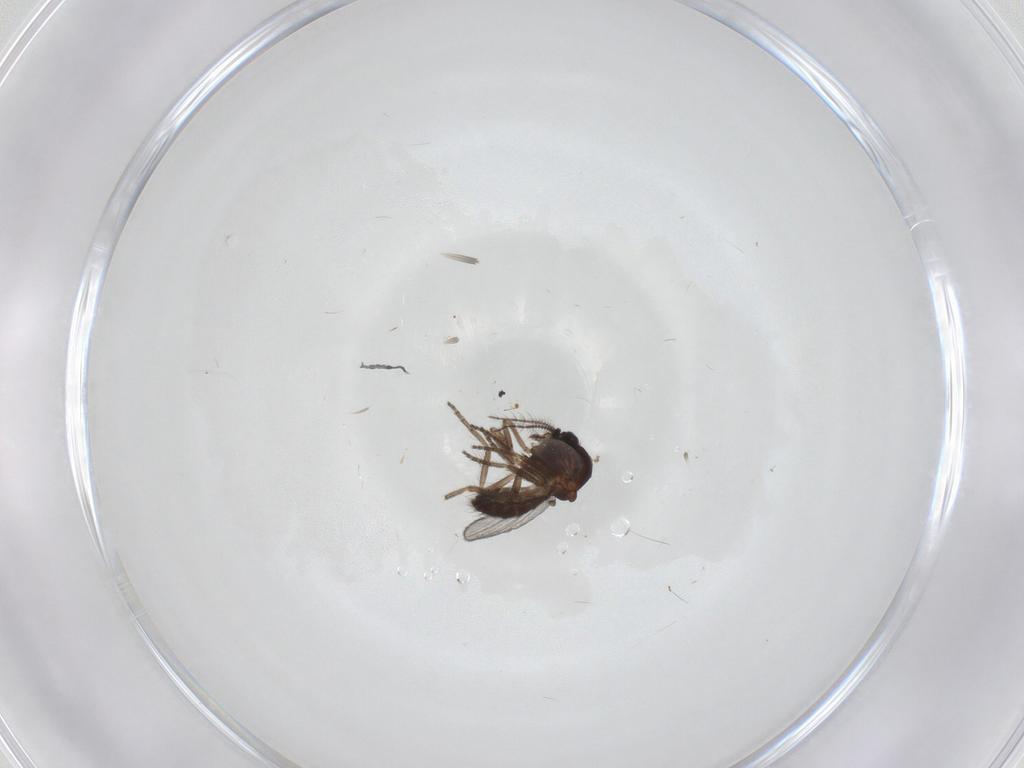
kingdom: Animalia
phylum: Arthropoda
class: Insecta
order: Diptera
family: Ceratopogonidae
